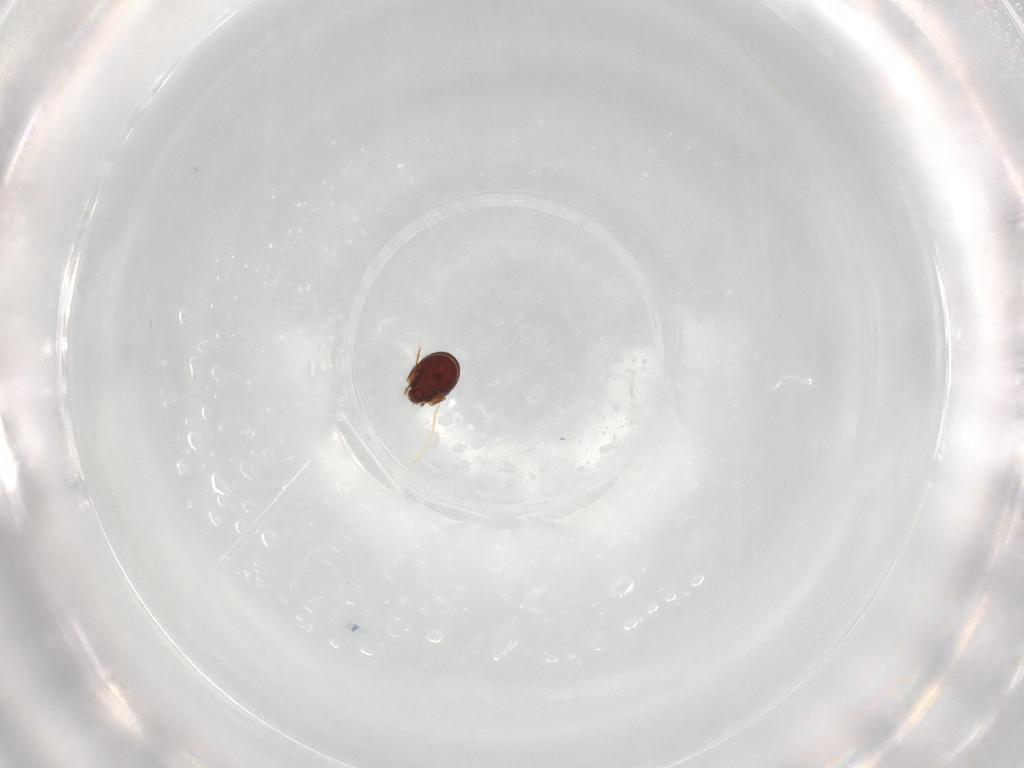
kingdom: Animalia
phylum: Arthropoda
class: Arachnida
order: Sarcoptiformes
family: Phenopelopidae
